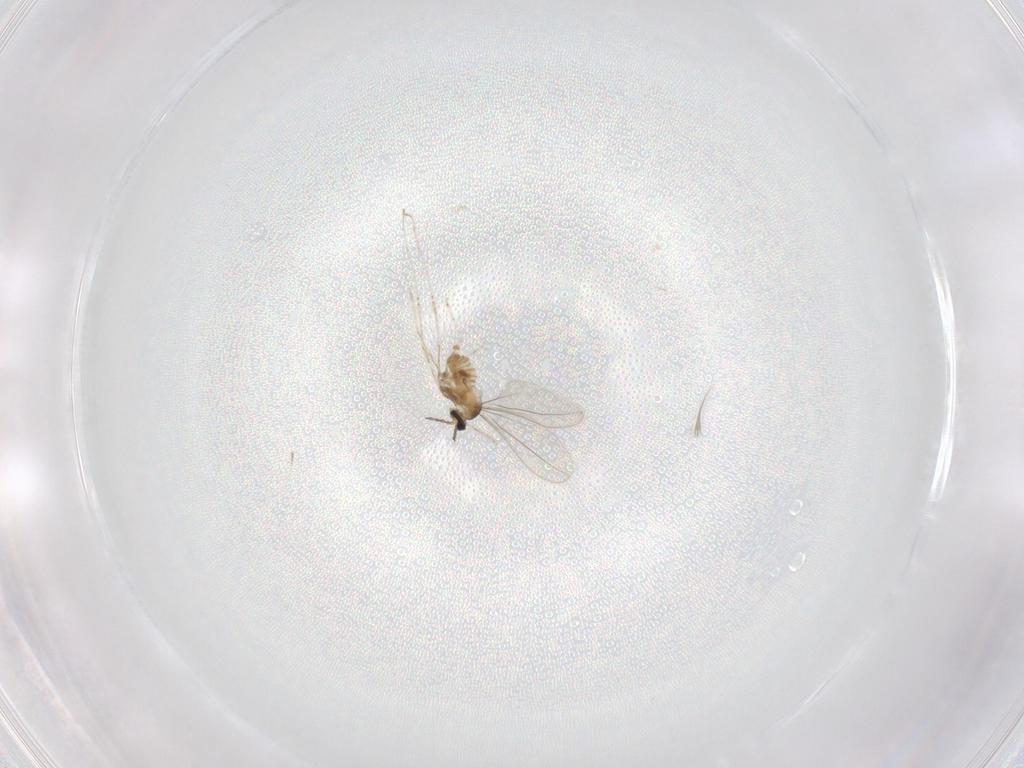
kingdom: Animalia
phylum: Arthropoda
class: Insecta
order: Diptera
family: Cecidomyiidae
